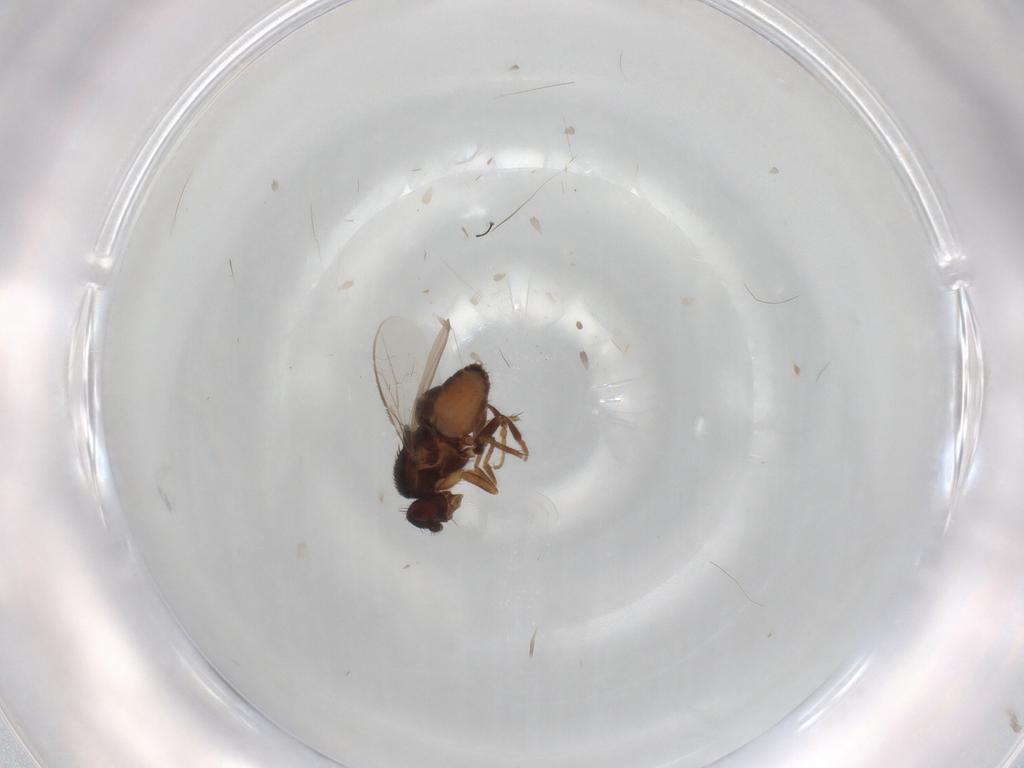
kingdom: Animalia
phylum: Arthropoda
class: Insecta
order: Diptera
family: Sphaeroceridae
